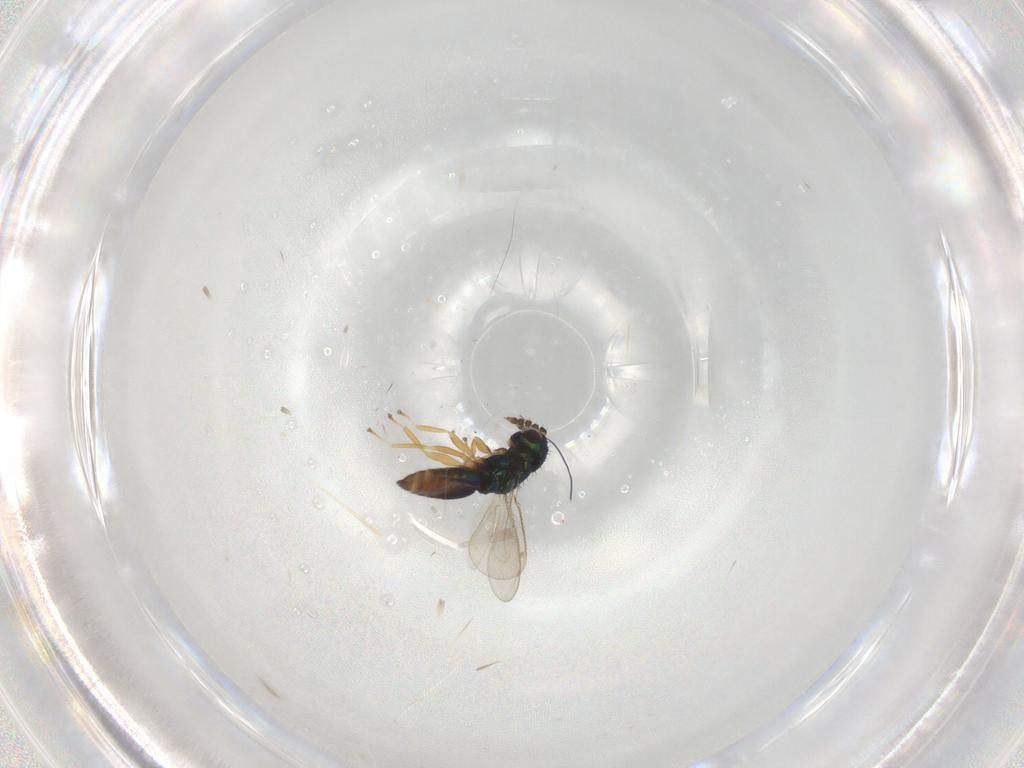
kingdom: Animalia
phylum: Arthropoda
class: Insecta
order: Hymenoptera
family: Eulophidae
